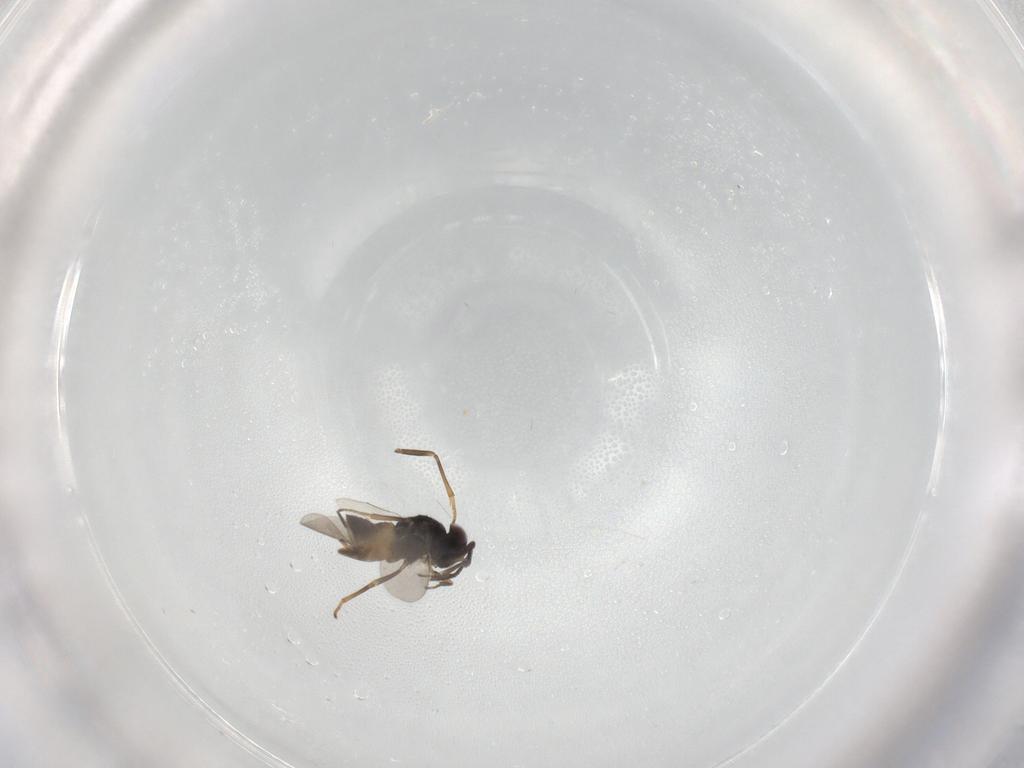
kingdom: Animalia
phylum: Arthropoda
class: Insecta
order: Hymenoptera
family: Encyrtidae
